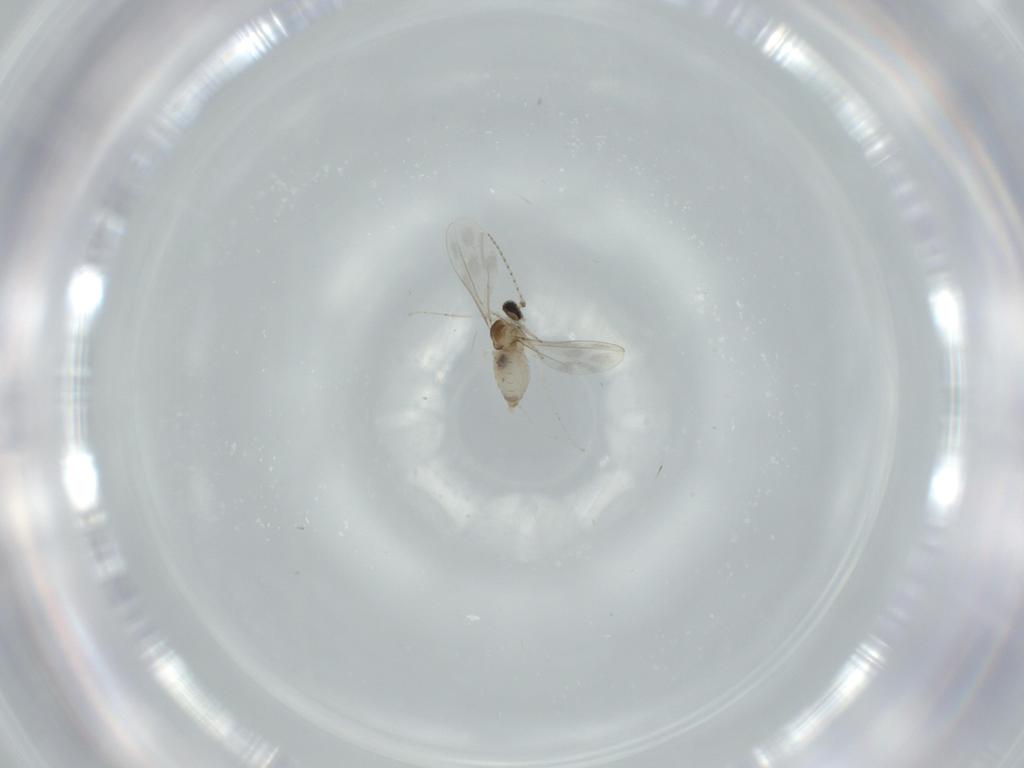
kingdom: Animalia
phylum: Arthropoda
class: Insecta
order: Diptera
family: Cecidomyiidae
